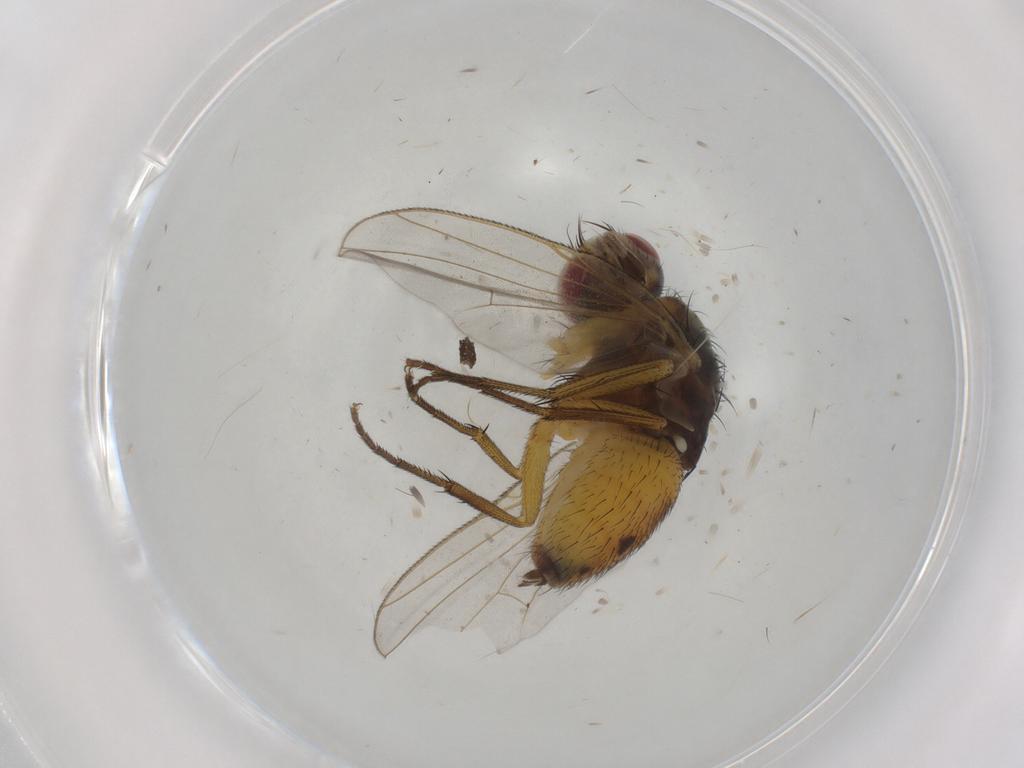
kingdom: Animalia
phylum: Arthropoda
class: Insecta
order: Diptera
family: Muscidae
